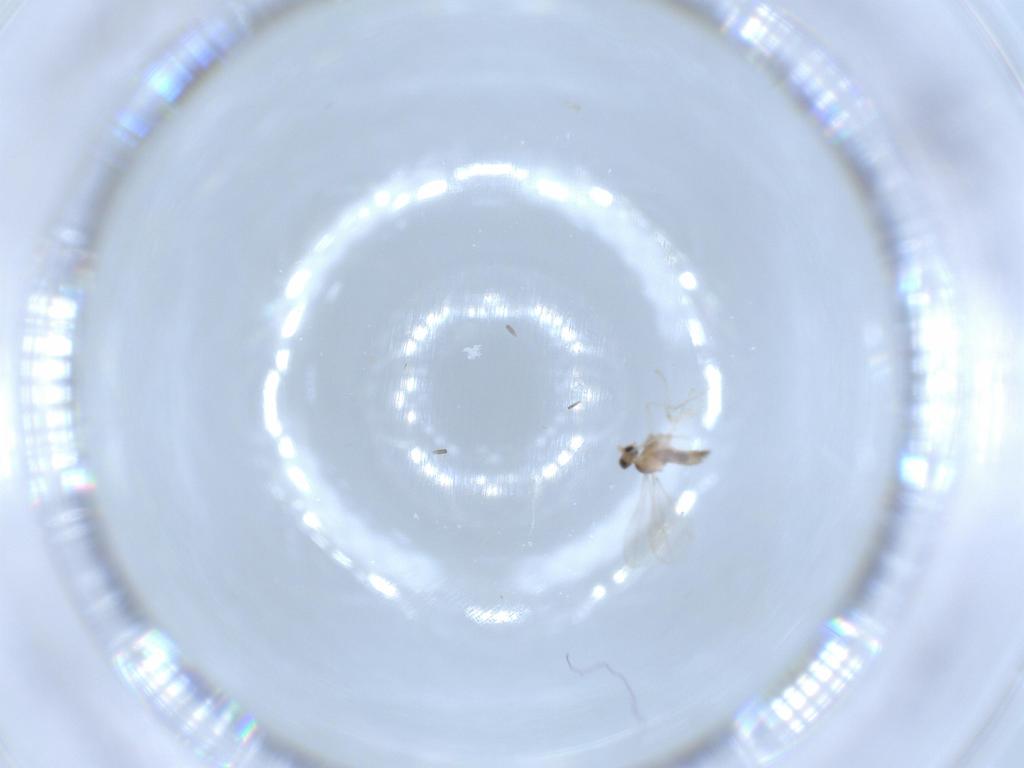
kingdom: Animalia
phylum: Arthropoda
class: Insecta
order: Diptera
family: Cecidomyiidae
